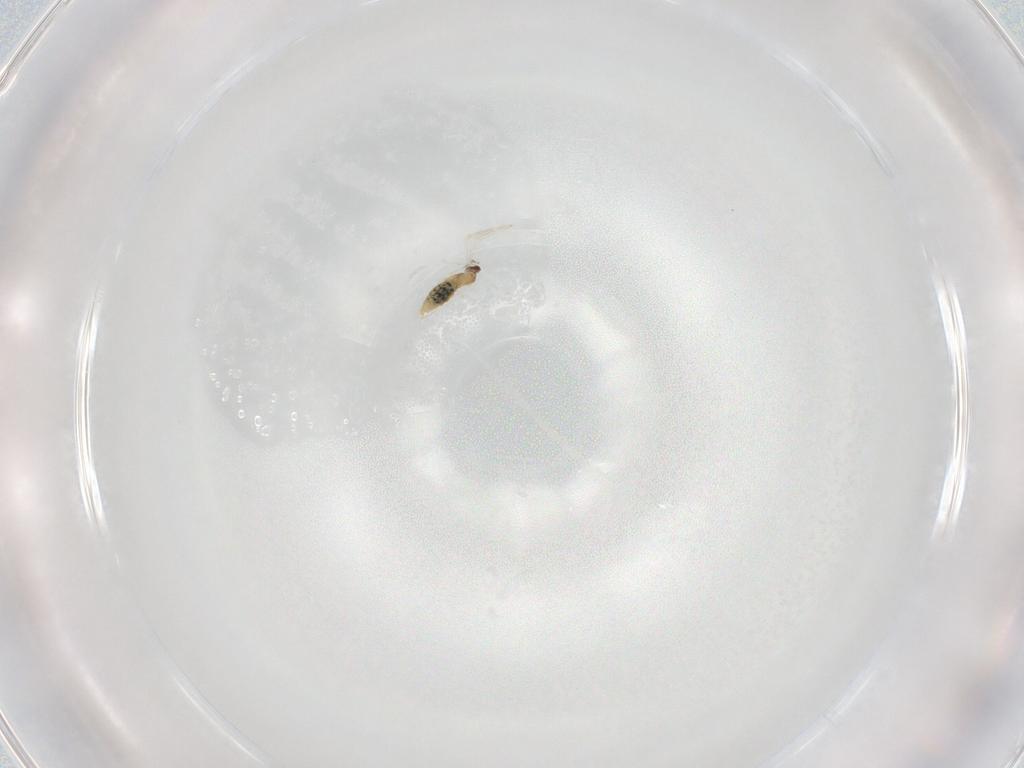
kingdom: Animalia
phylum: Arthropoda
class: Insecta
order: Diptera
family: Cecidomyiidae
